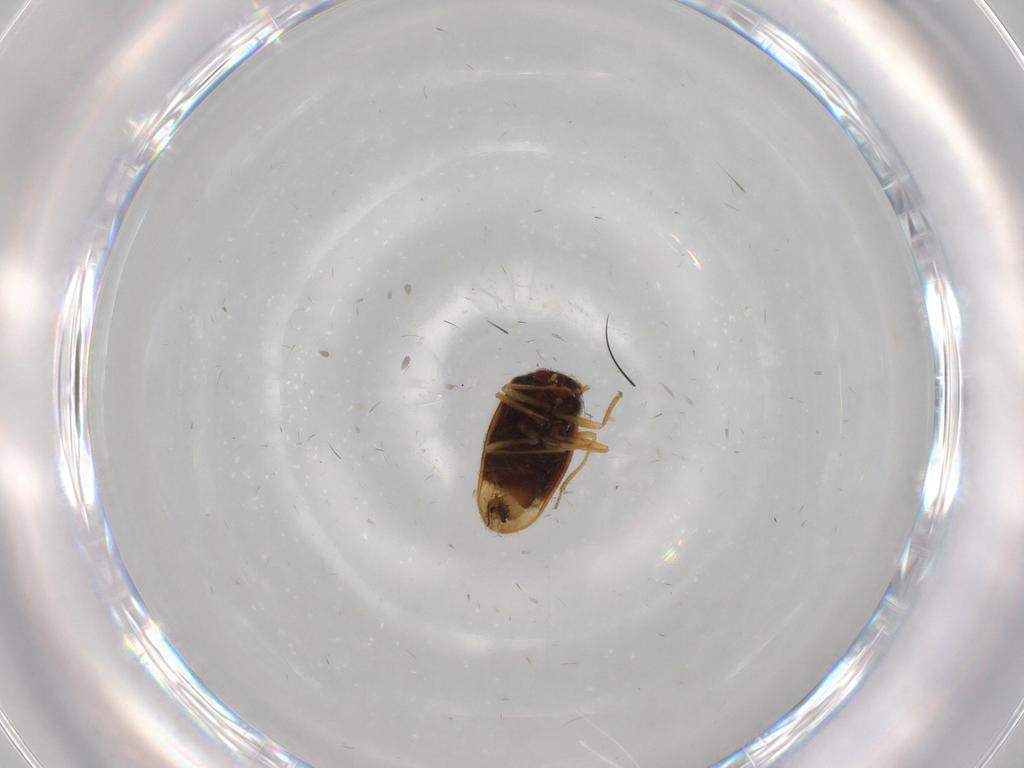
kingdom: Animalia
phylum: Arthropoda
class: Insecta
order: Hemiptera
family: Schizopteridae
